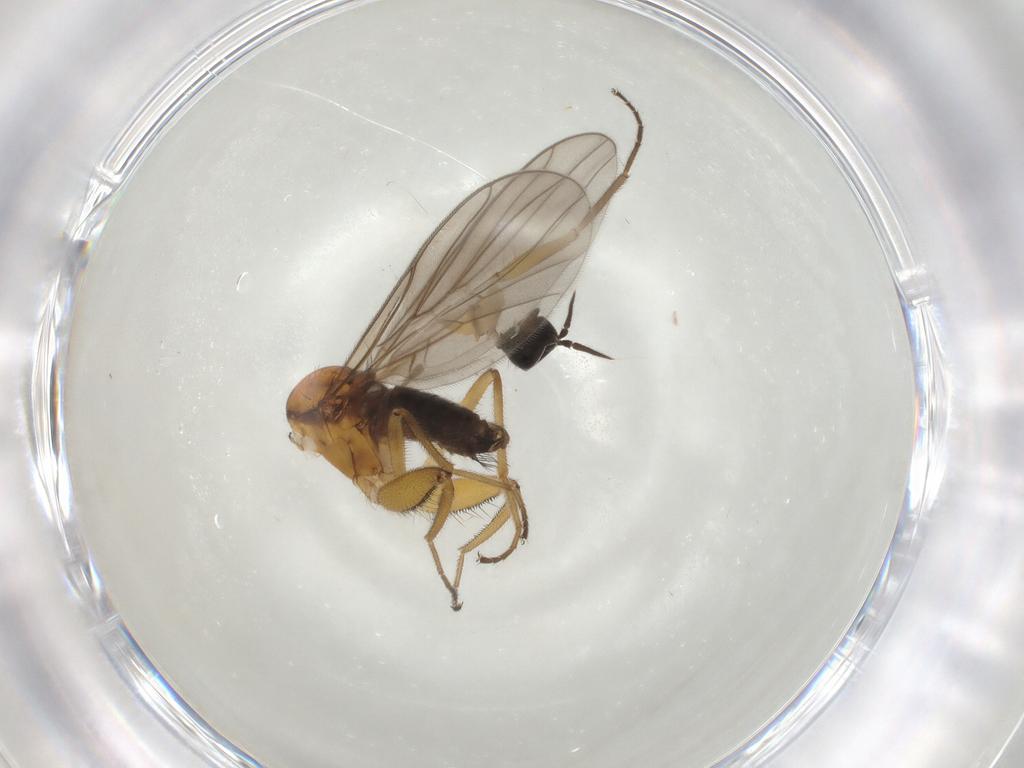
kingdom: Animalia
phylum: Arthropoda
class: Insecta
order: Diptera
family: Hybotidae
